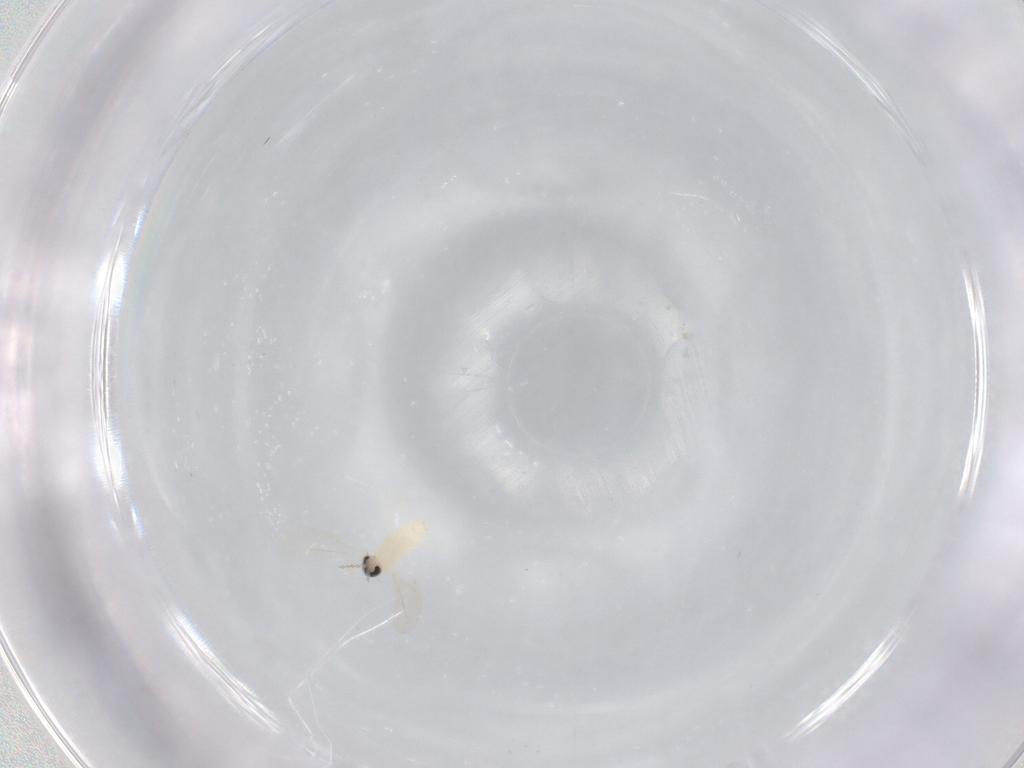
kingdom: Animalia
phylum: Arthropoda
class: Insecta
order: Diptera
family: Cecidomyiidae
